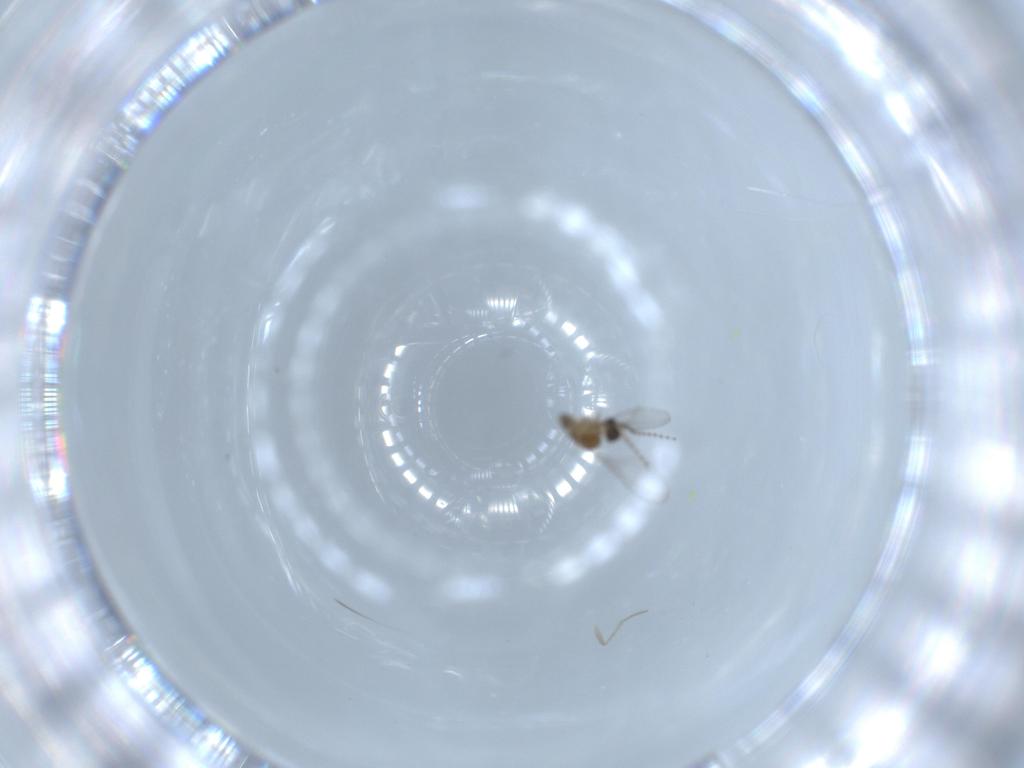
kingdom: Animalia
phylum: Arthropoda
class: Insecta
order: Diptera
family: Cecidomyiidae
